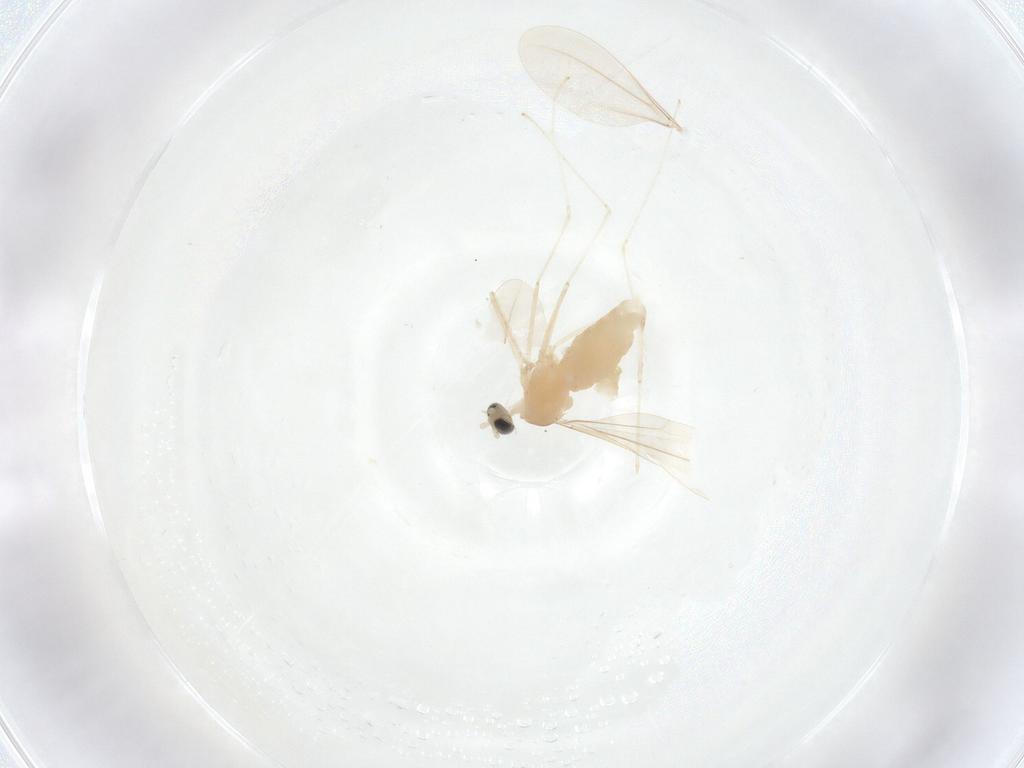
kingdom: Animalia
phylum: Arthropoda
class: Insecta
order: Diptera
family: Cecidomyiidae
